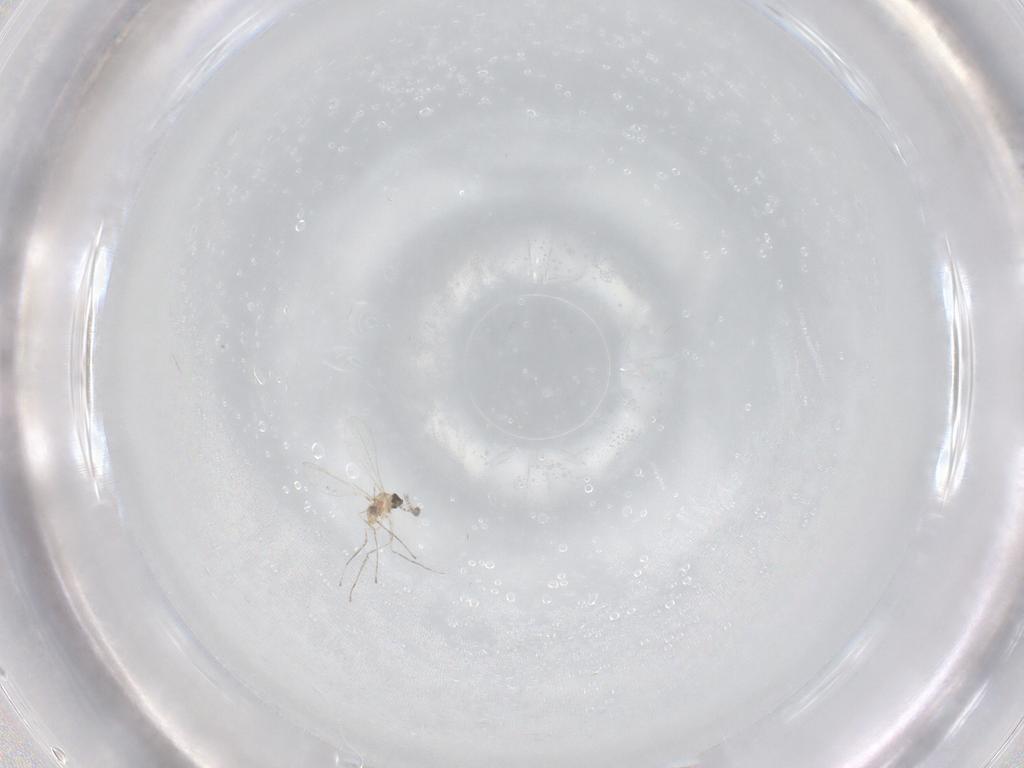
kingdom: Animalia
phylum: Arthropoda
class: Insecta
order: Diptera
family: Cecidomyiidae
